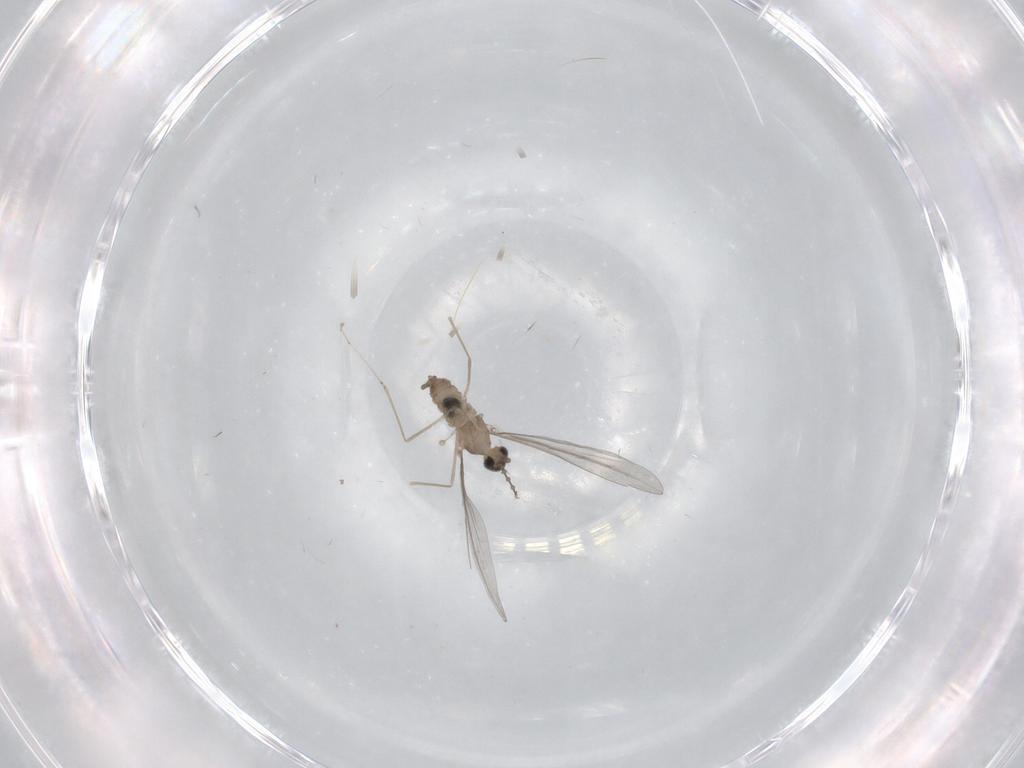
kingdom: Animalia
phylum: Arthropoda
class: Insecta
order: Diptera
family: Cecidomyiidae
